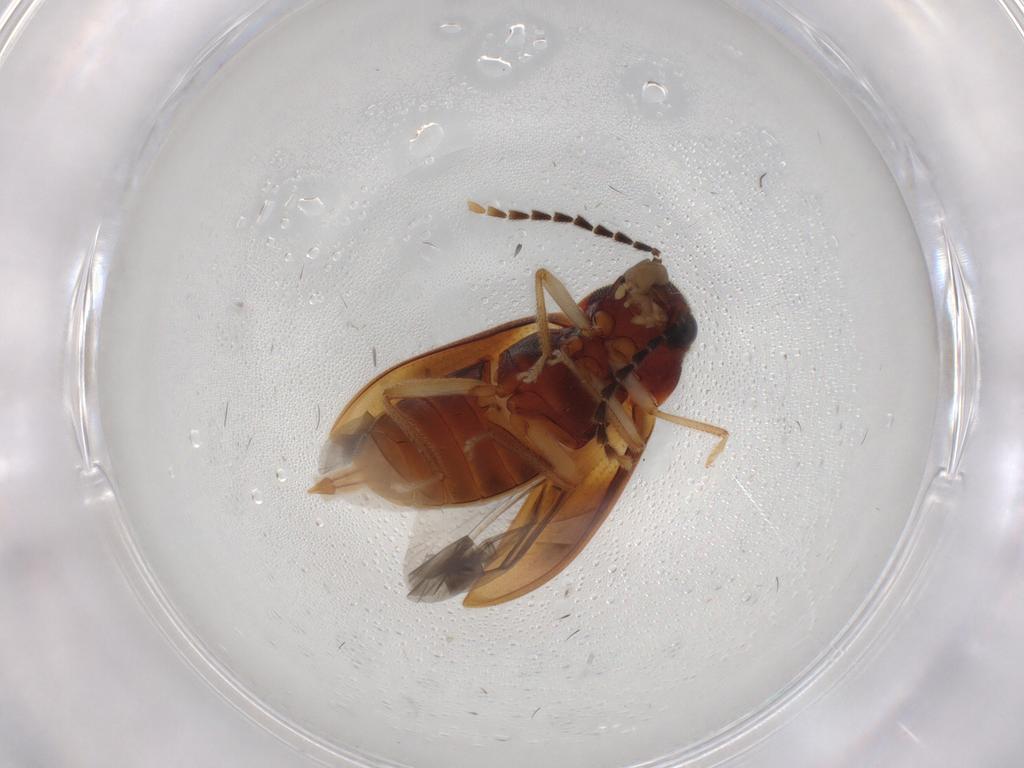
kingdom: Animalia
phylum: Arthropoda
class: Insecta
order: Coleoptera
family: Ptilodactylidae
